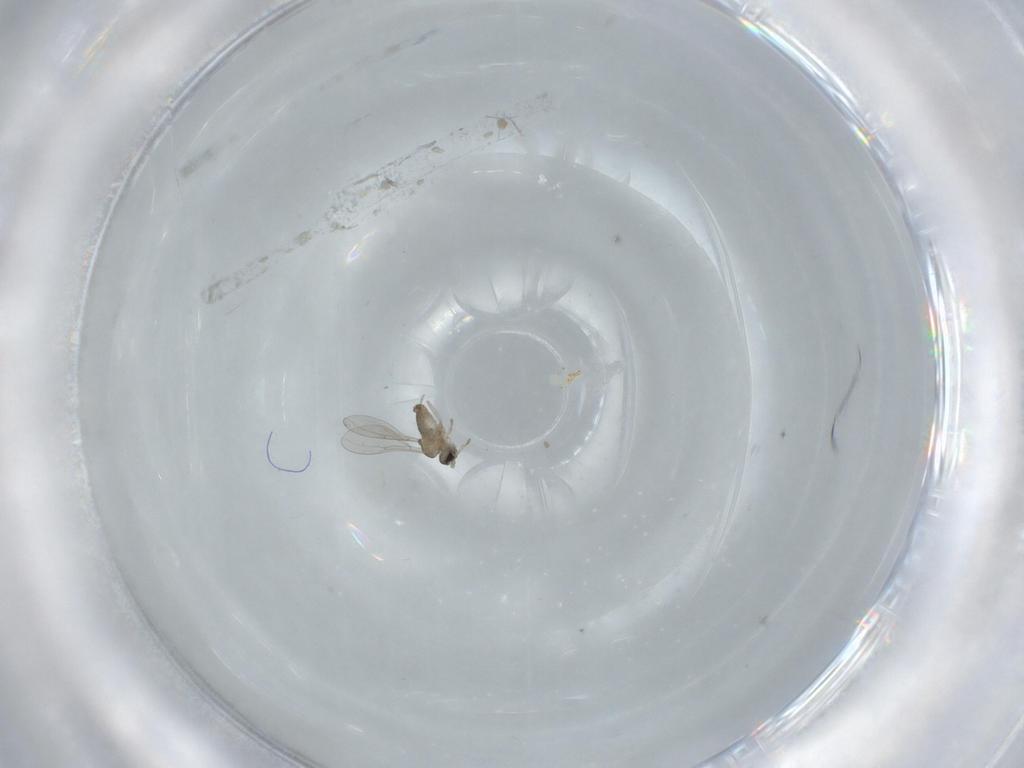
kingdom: Animalia
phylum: Arthropoda
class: Insecta
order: Diptera
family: Cecidomyiidae
